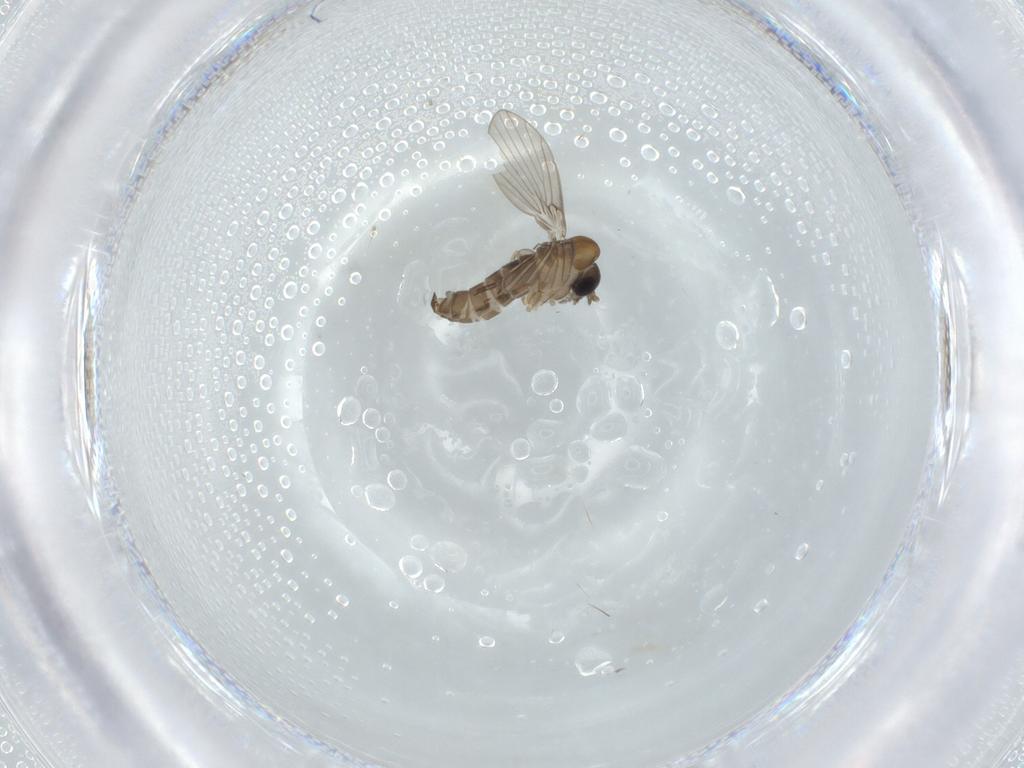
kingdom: Animalia
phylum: Arthropoda
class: Insecta
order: Diptera
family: Psychodidae
